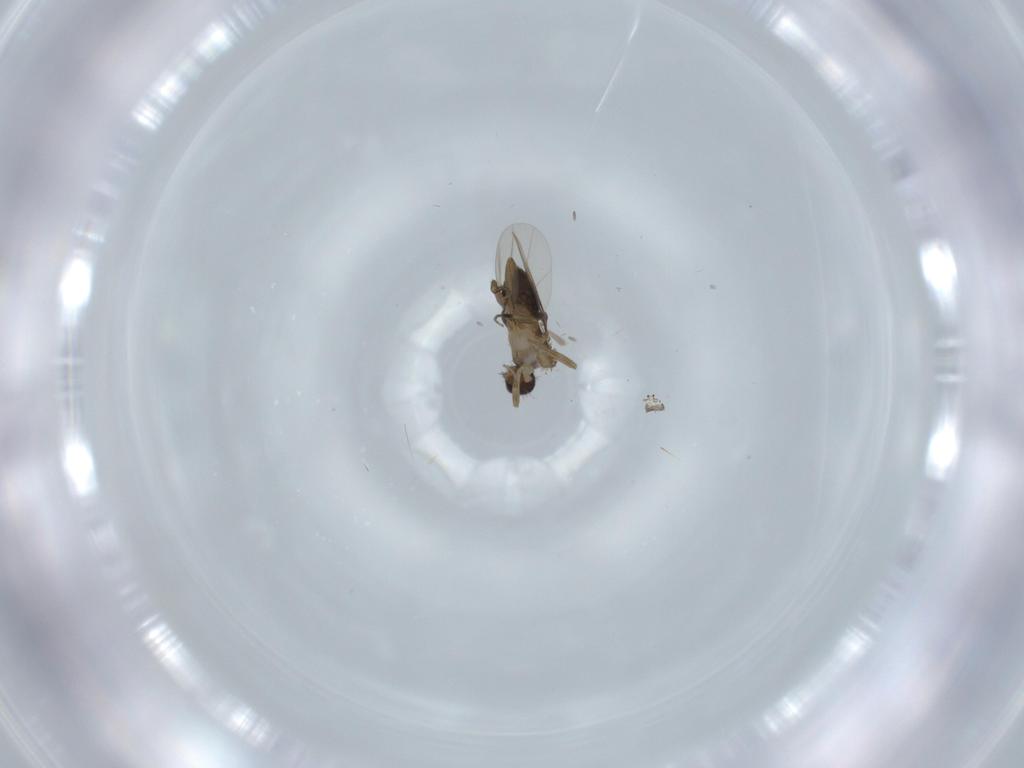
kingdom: Animalia
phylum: Arthropoda
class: Insecta
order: Diptera
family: Phoridae
